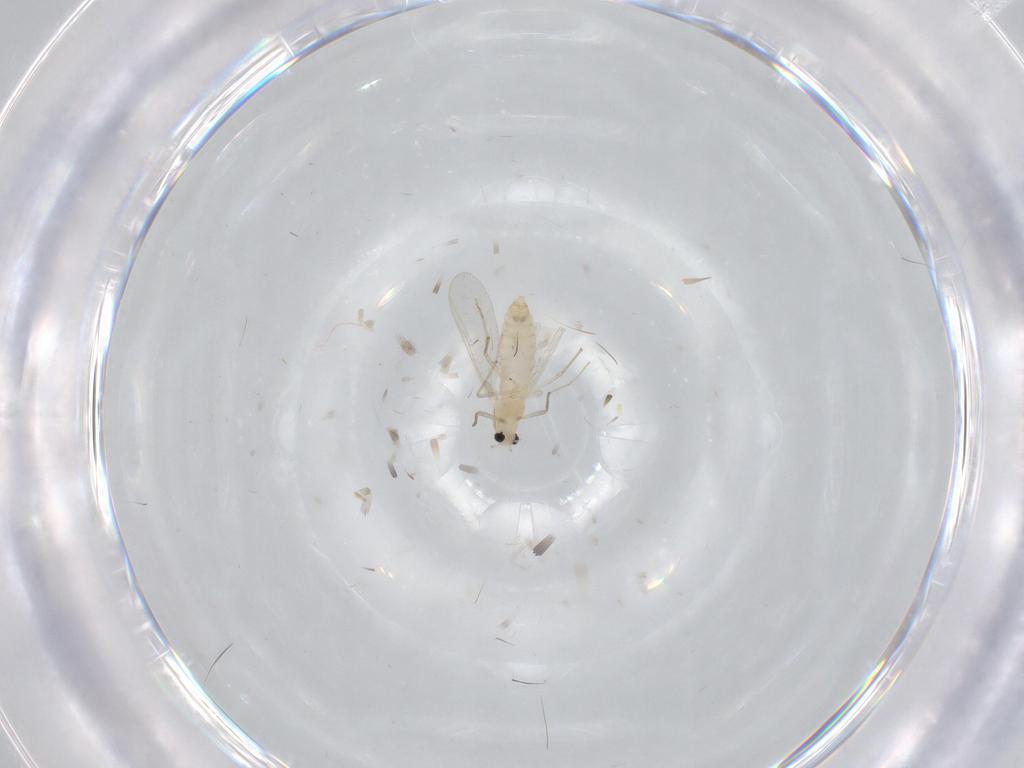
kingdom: Animalia
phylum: Arthropoda
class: Insecta
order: Diptera
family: Chironomidae
